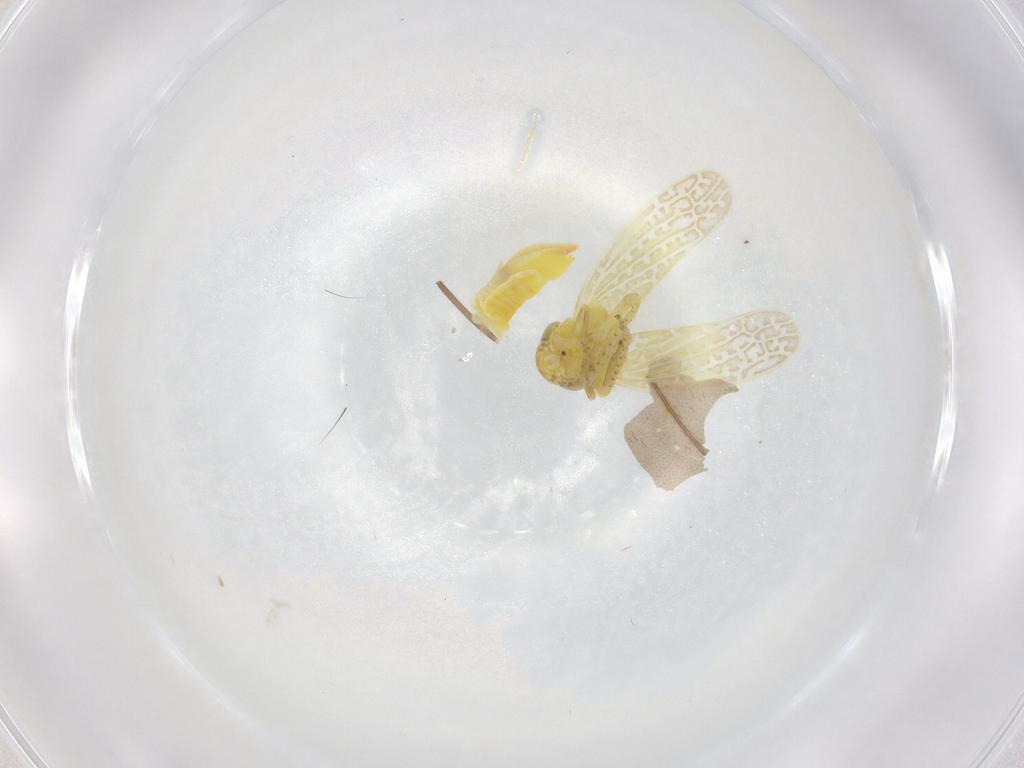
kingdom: Animalia
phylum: Arthropoda
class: Insecta
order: Hemiptera
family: Cicadellidae
